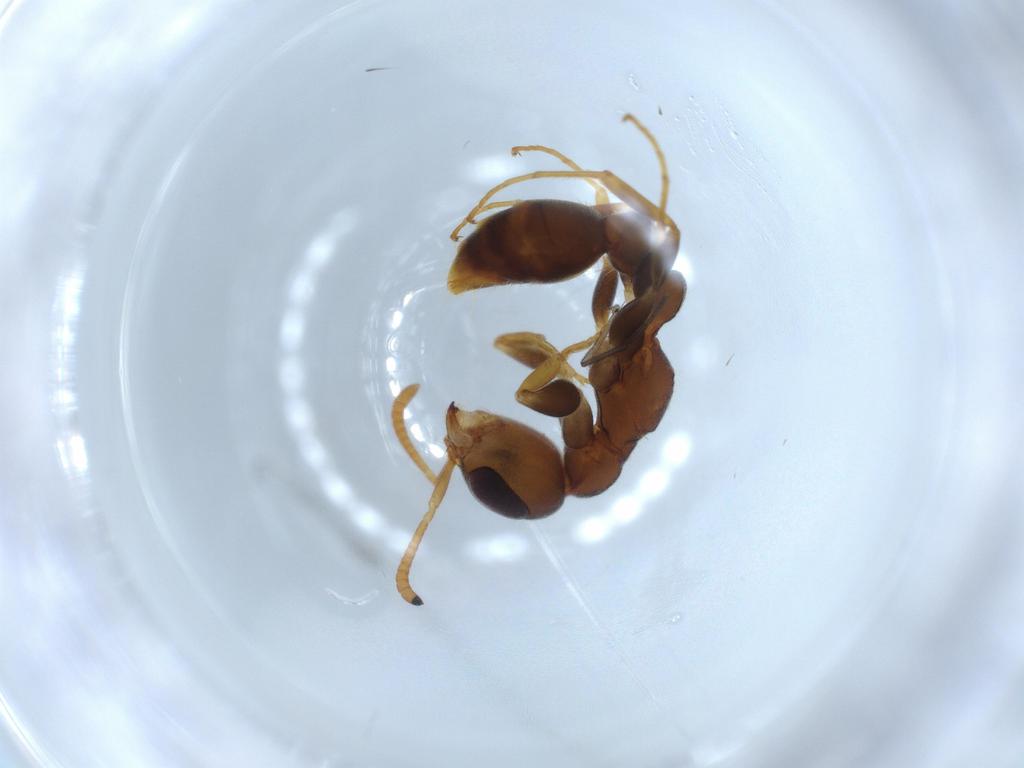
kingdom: Animalia
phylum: Arthropoda
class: Insecta
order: Hymenoptera
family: Formicidae
